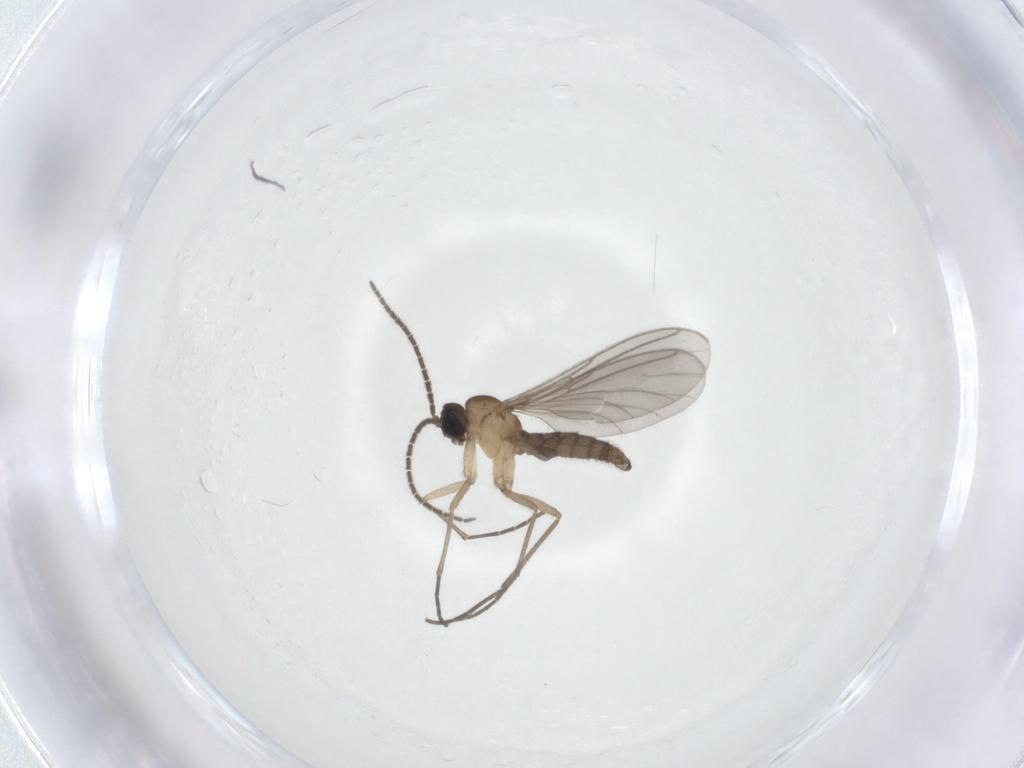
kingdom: Animalia
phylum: Arthropoda
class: Insecta
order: Diptera
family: Sciaridae
